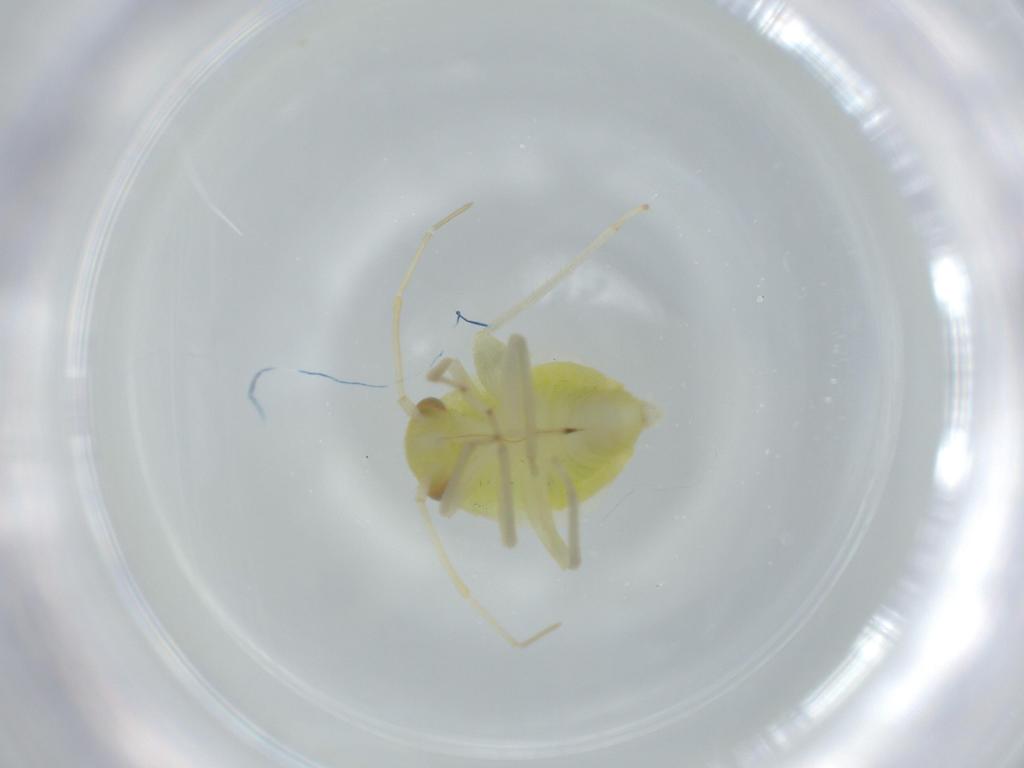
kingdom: Animalia
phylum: Arthropoda
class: Insecta
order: Hemiptera
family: Miridae
